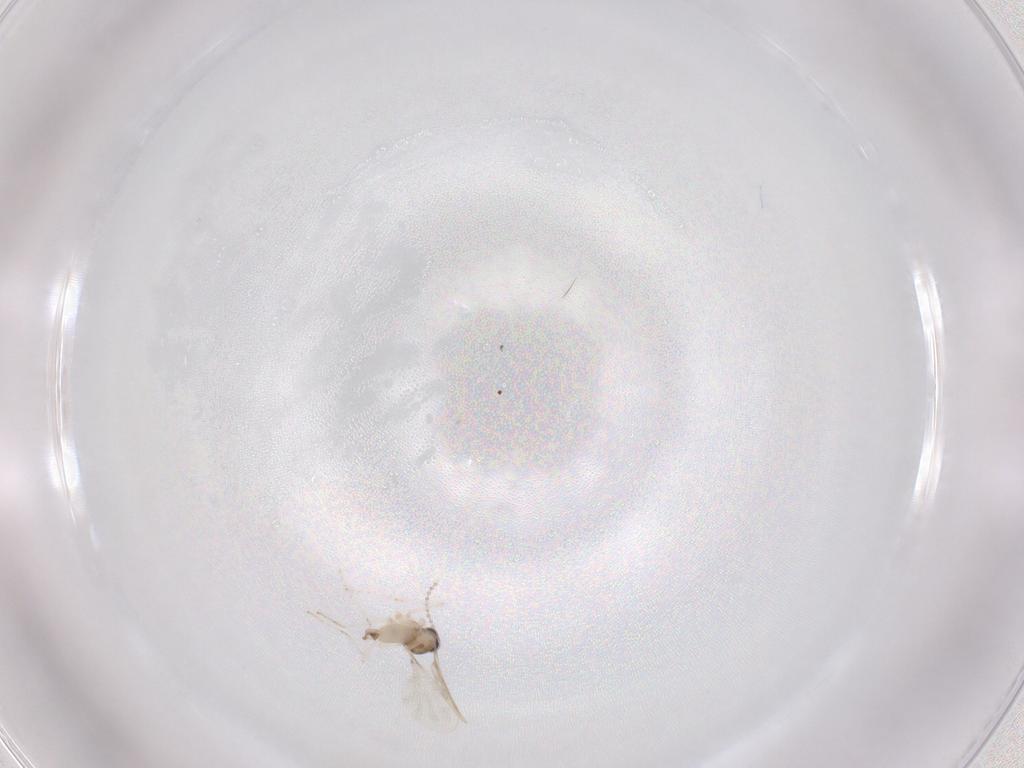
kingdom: Animalia
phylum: Arthropoda
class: Insecta
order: Diptera
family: Cecidomyiidae
